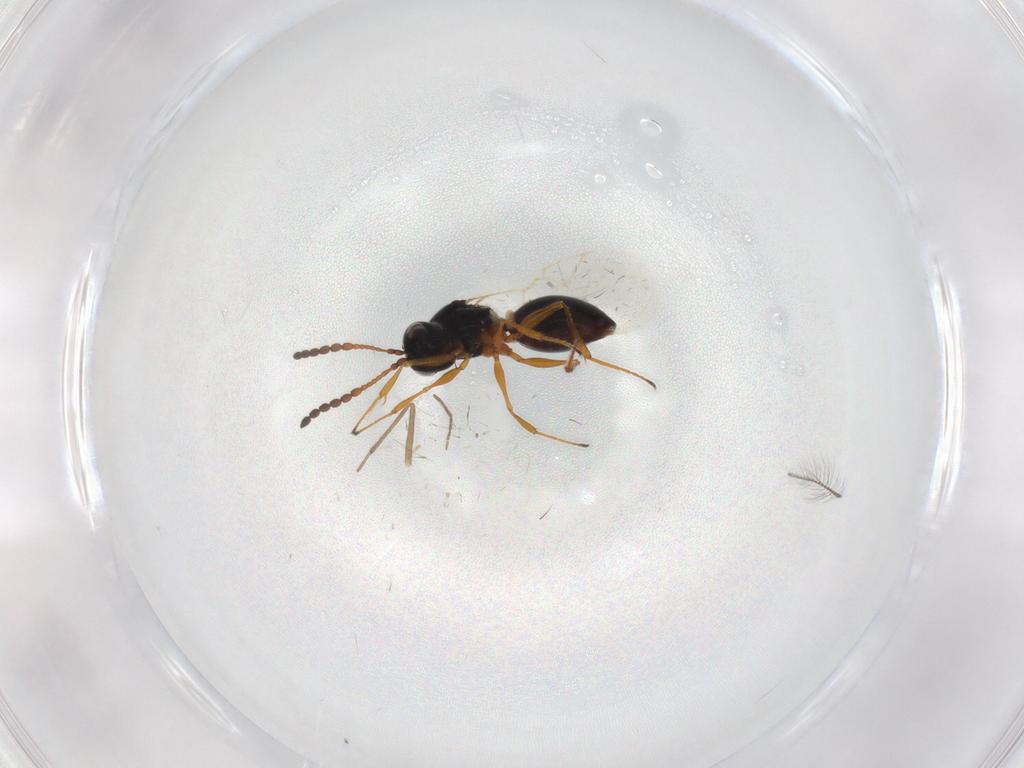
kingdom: Animalia
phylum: Arthropoda
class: Insecta
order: Hymenoptera
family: Figitidae
